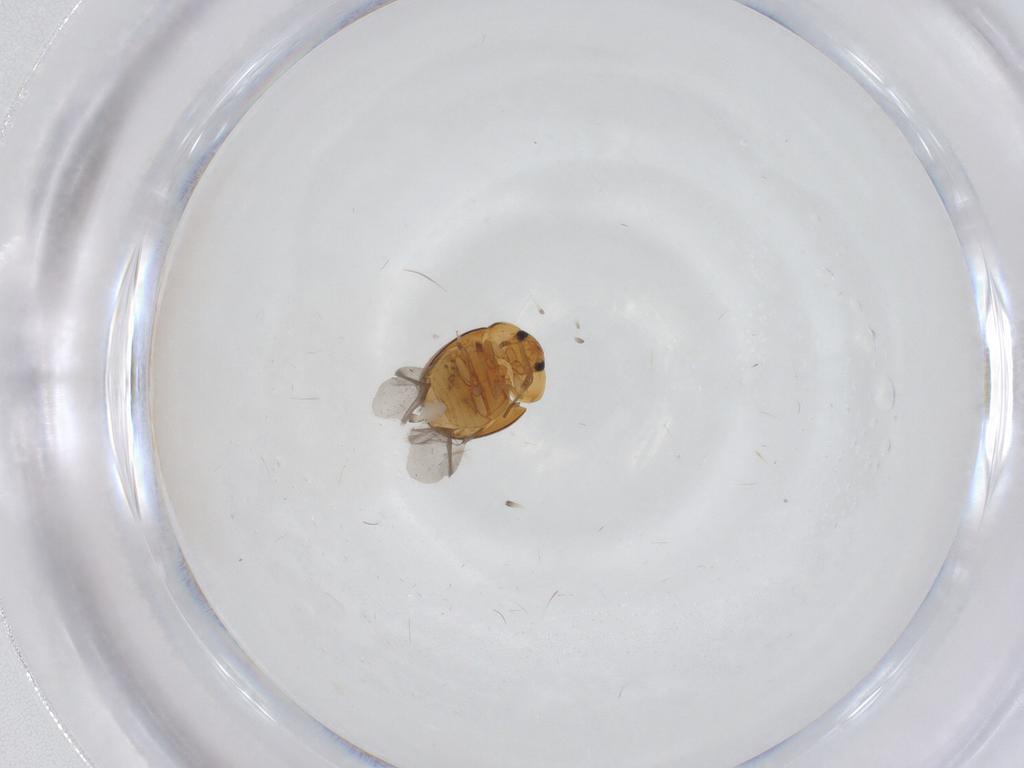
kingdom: Animalia
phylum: Arthropoda
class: Insecta
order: Coleoptera
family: Phalacridae
